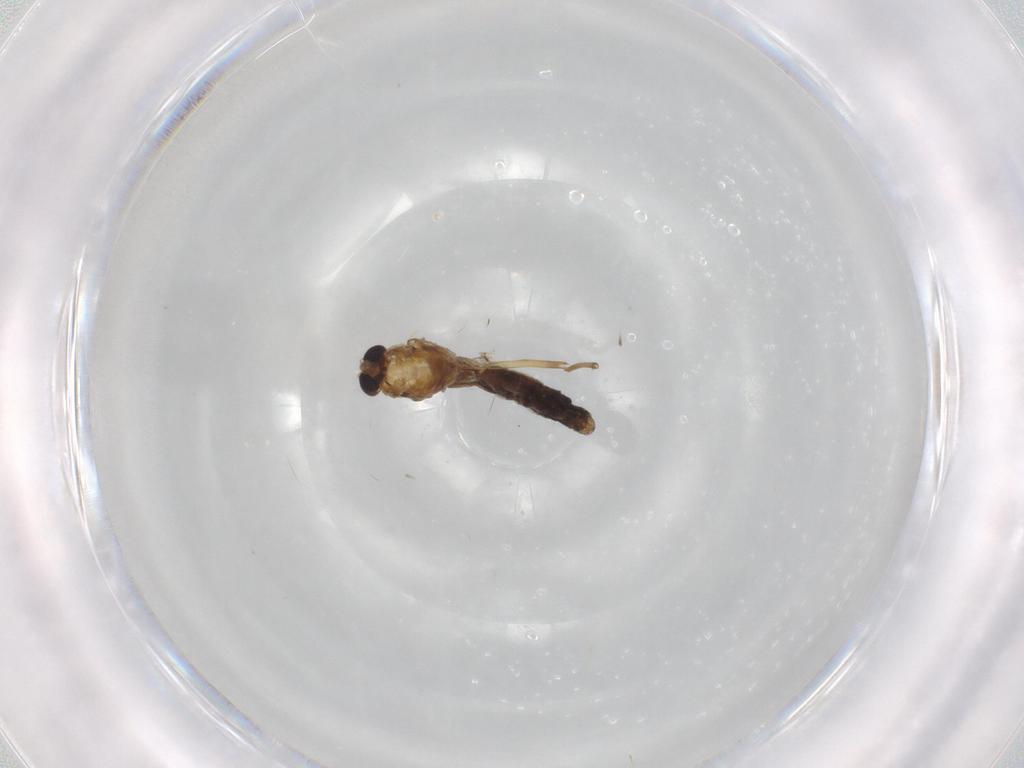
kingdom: Animalia
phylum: Arthropoda
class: Insecta
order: Diptera
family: Chironomidae
